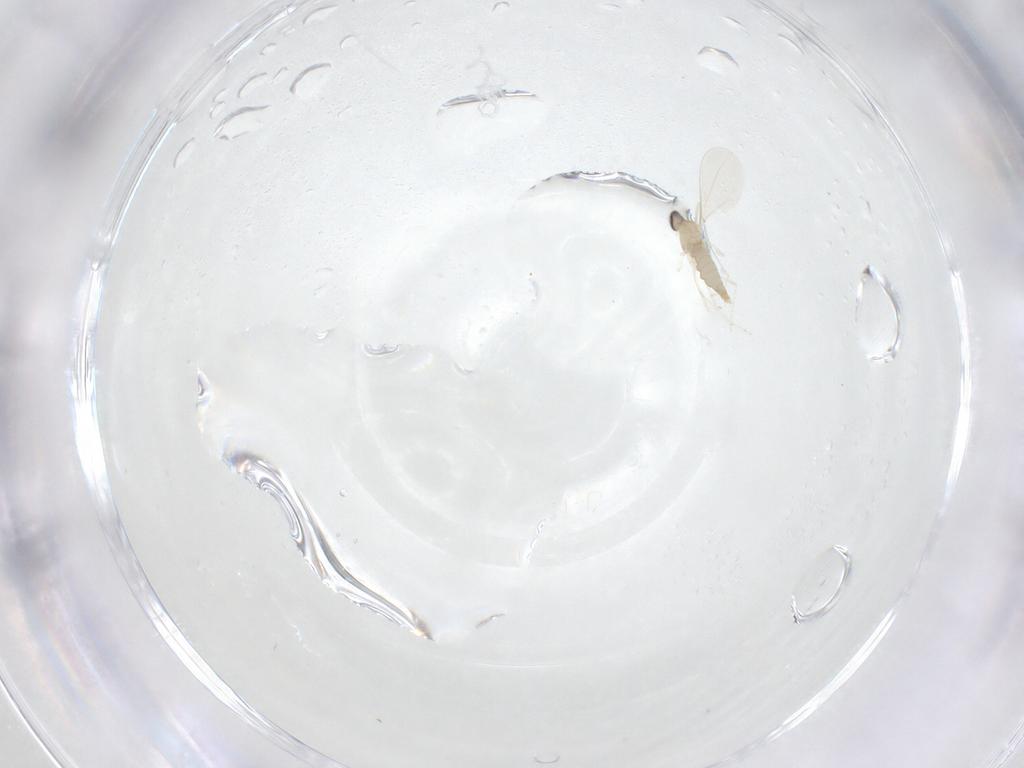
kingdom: Animalia
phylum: Arthropoda
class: Insecta
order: Diptera
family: Cecidomyiidae
